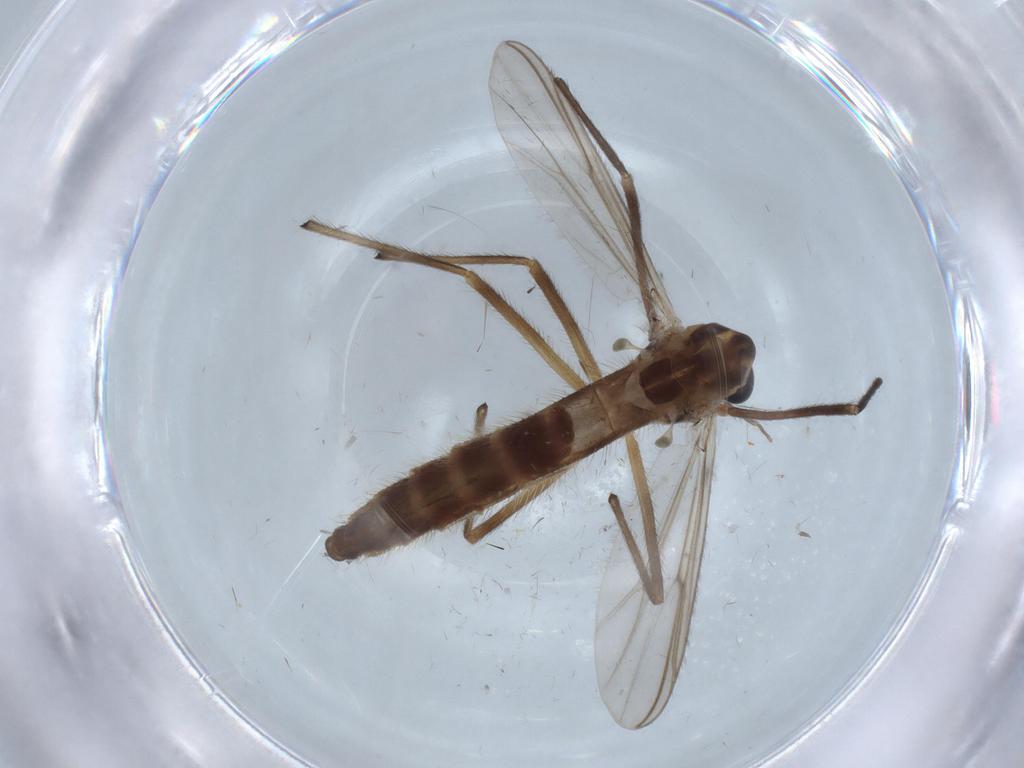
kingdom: Animalia
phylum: Arthropoda
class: Insecta
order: Diptera
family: Chironomidae
